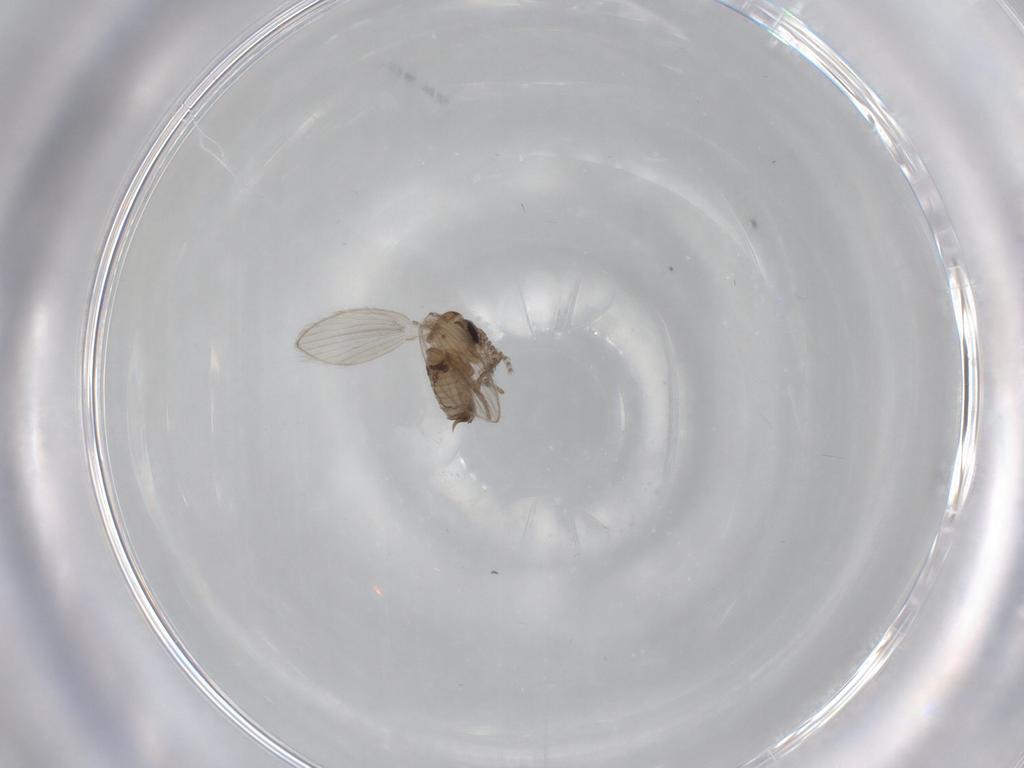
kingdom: Animalia
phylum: Arthropoda
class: Insecta
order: Diptera
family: Psychodidae
